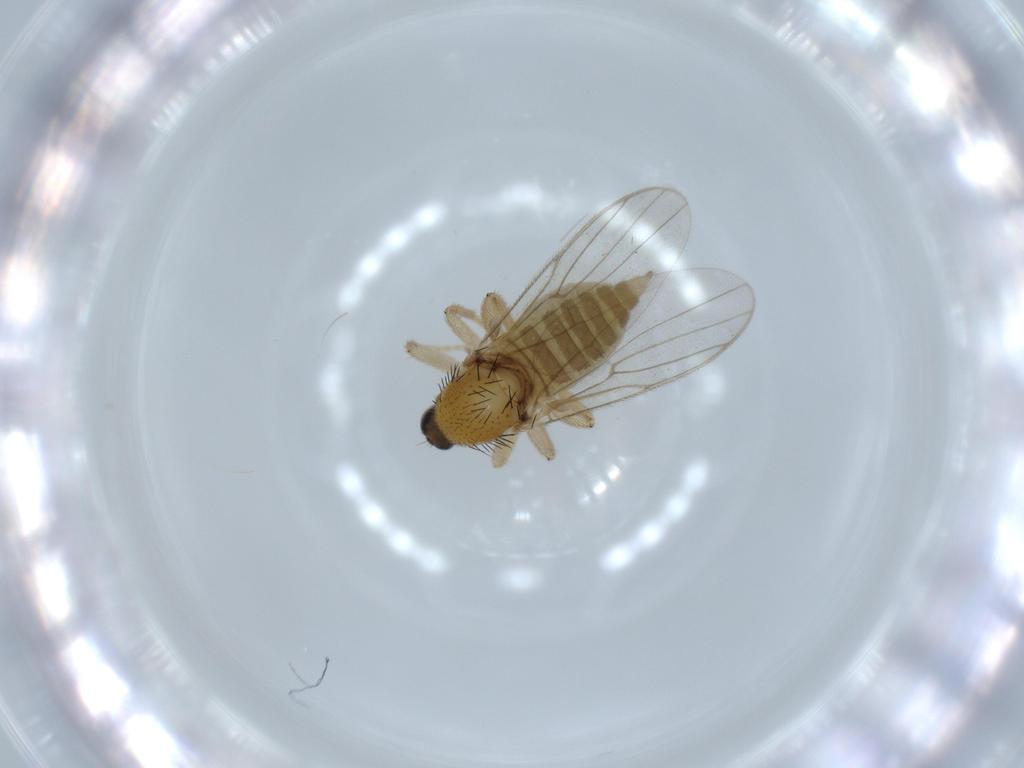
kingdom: Animalia
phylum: Arthropoda
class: Insecta
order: Diptera
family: Hybotidae
